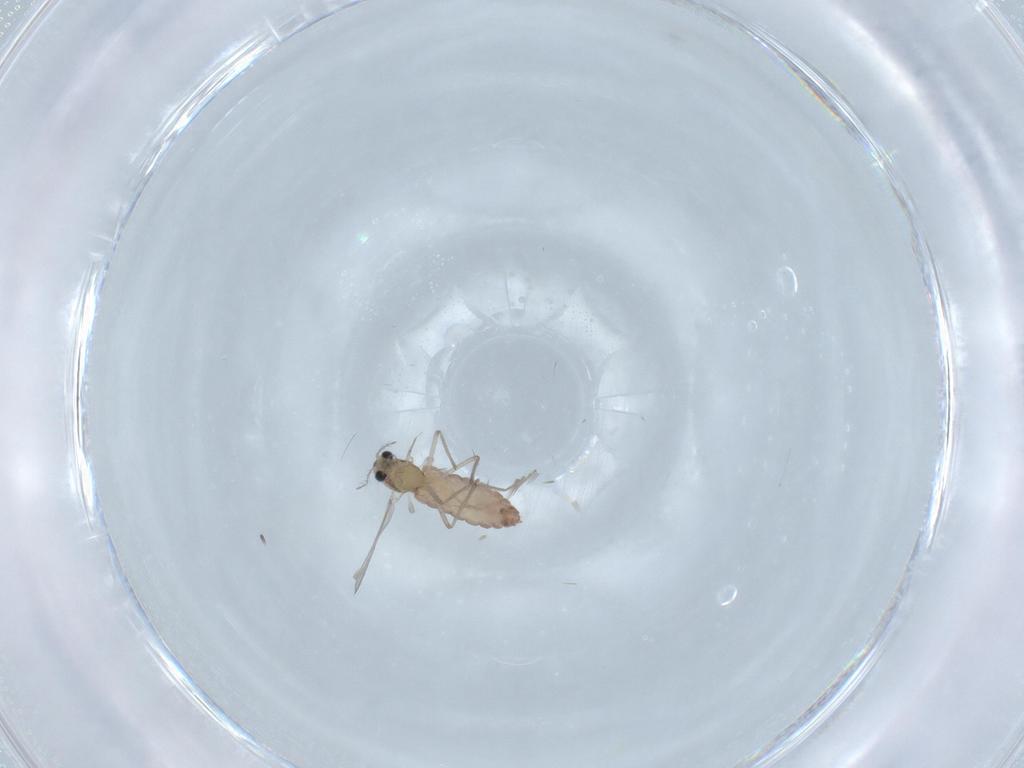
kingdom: Animalia
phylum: Arthropoda
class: Insecta
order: Diptera
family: Chironomidae
